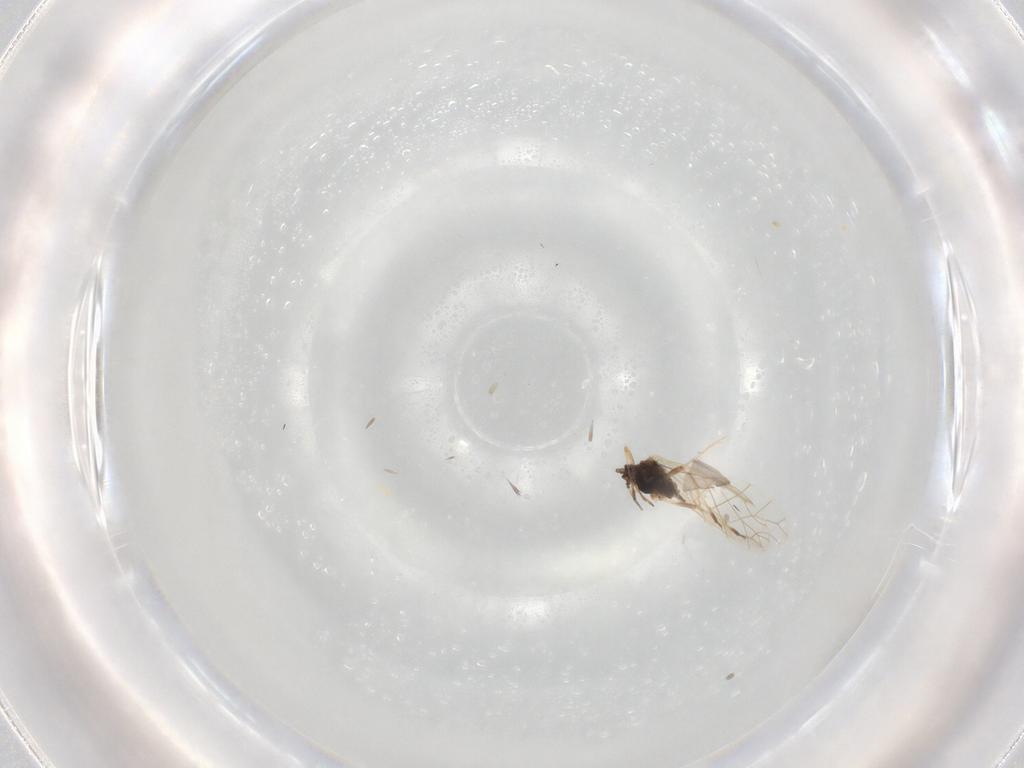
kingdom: Animalia
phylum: Arthropoda
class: Insecta
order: Hemiptera
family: Aphididae
